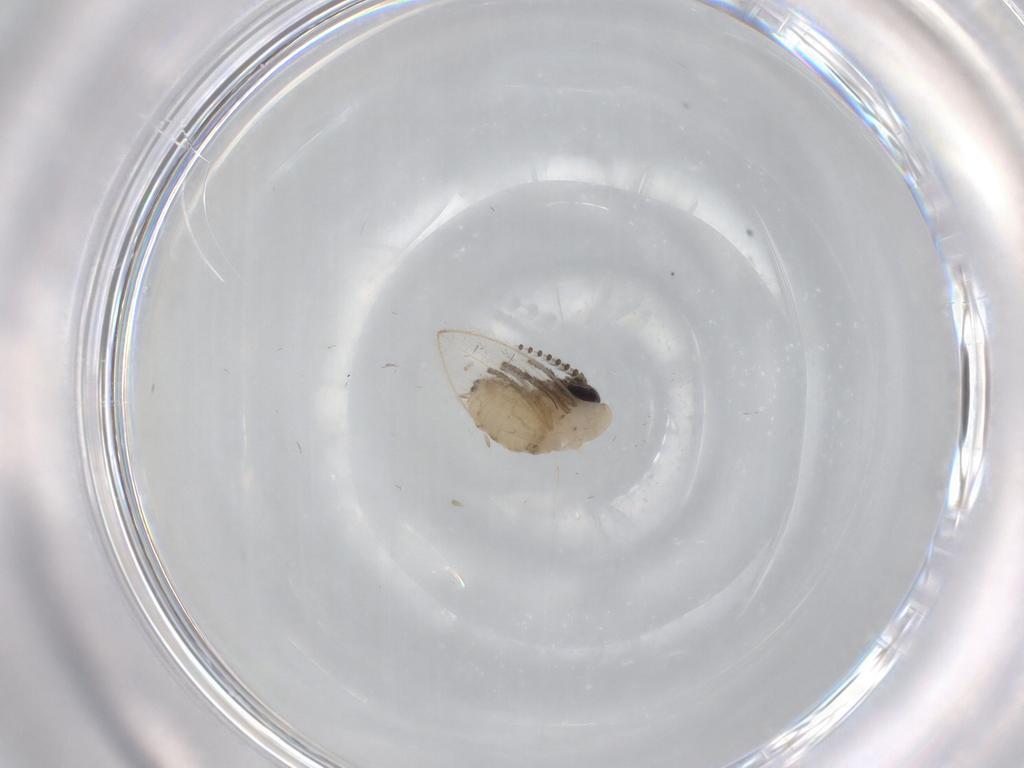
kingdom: Animalia
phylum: Arthropoda
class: Insecta
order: Diptera
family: Psychodidae
